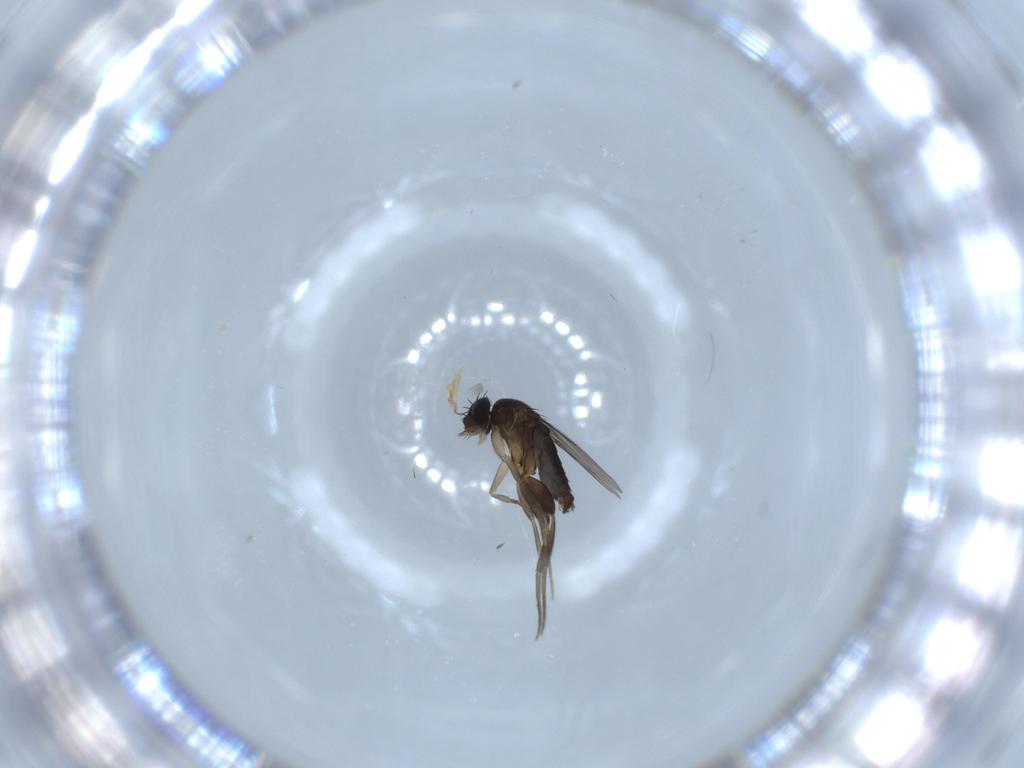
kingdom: Animalia
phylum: Arthropoda
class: Insecta
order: Diptera
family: Phoridae
